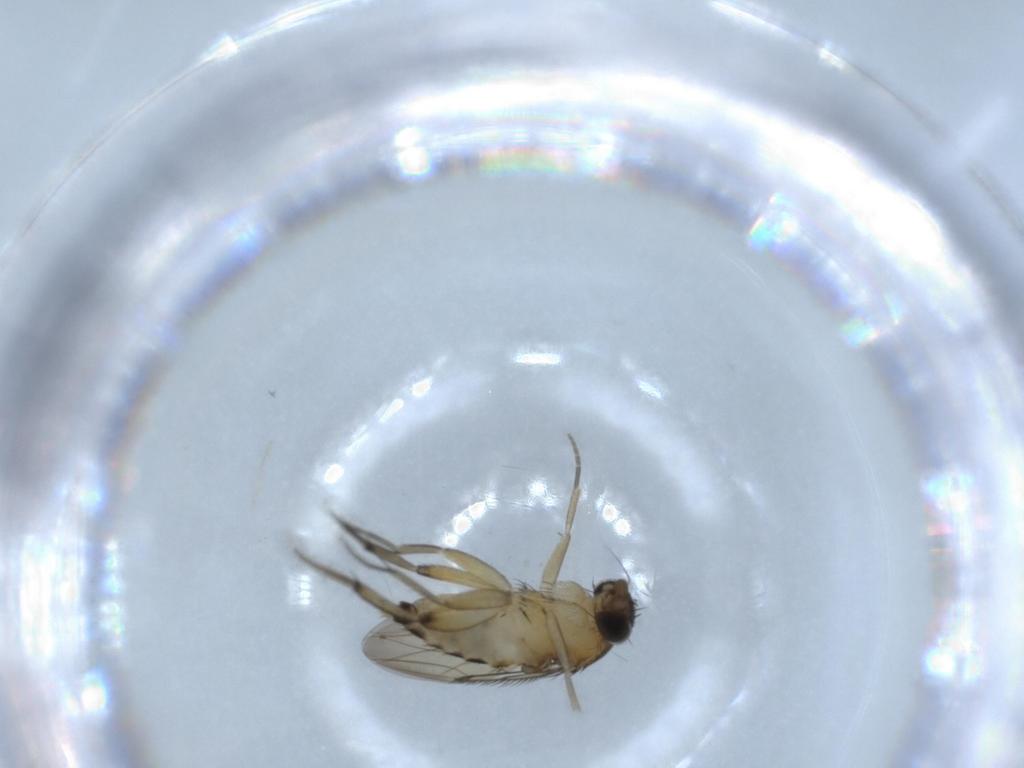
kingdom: Animalia
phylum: Arthropoda
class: Insecta
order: Diptera
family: Phoridae
